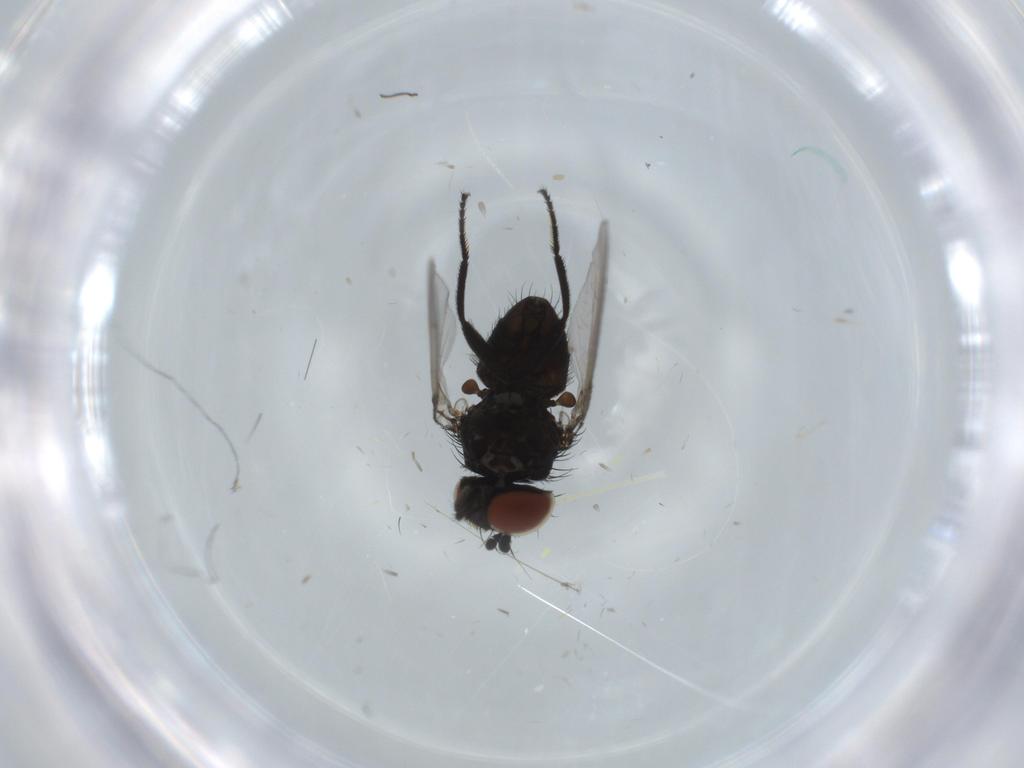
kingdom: Animalia
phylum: Arthropoda
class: Insecta
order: Diptera
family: Milichiidae
